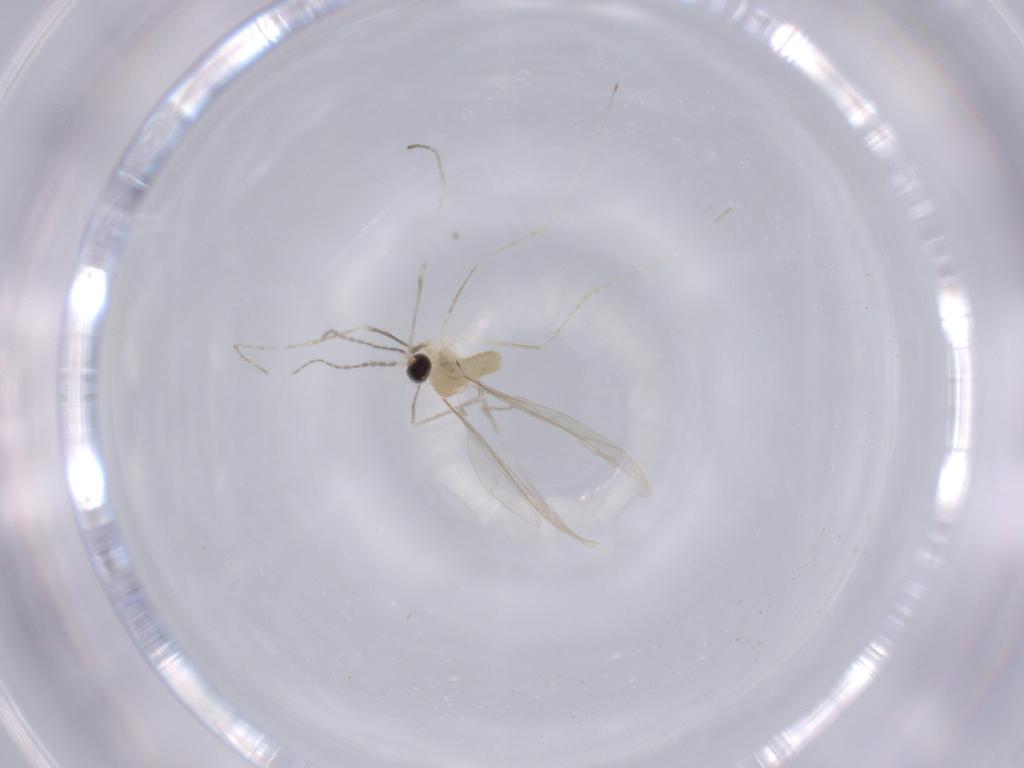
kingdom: Animalia
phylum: Arthropoda
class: Insecta
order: Diptera
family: Cecidomyiidae
